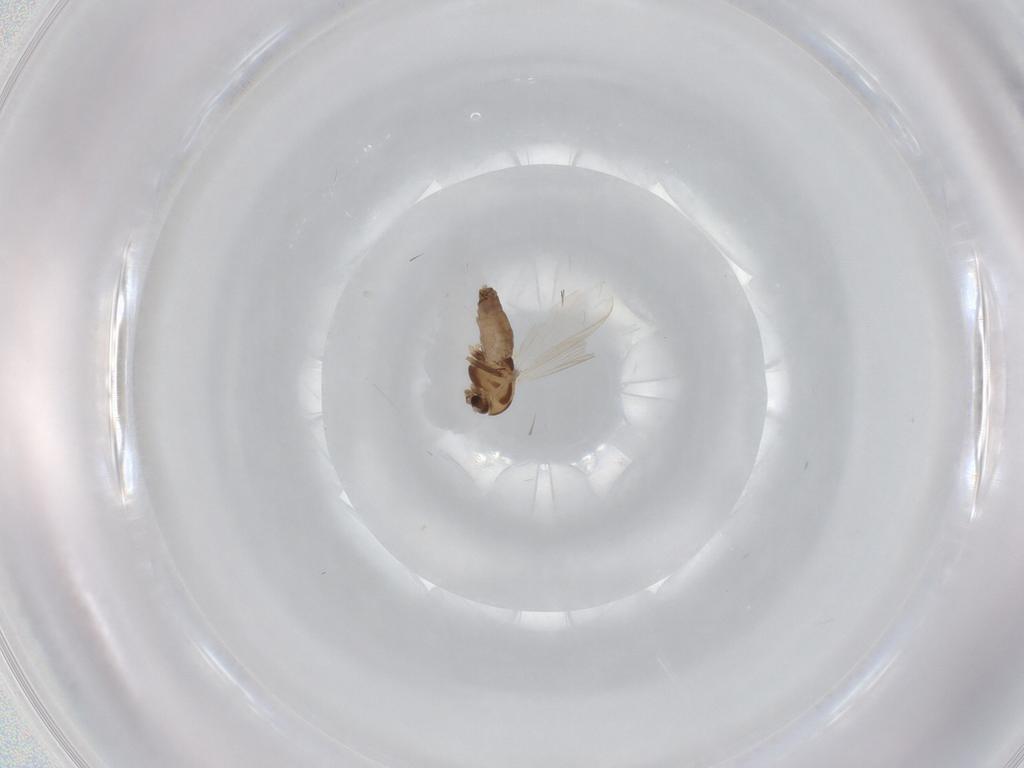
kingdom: Animalia
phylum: Arthropoda
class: Insecta
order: Diptera
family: Chironomidae
